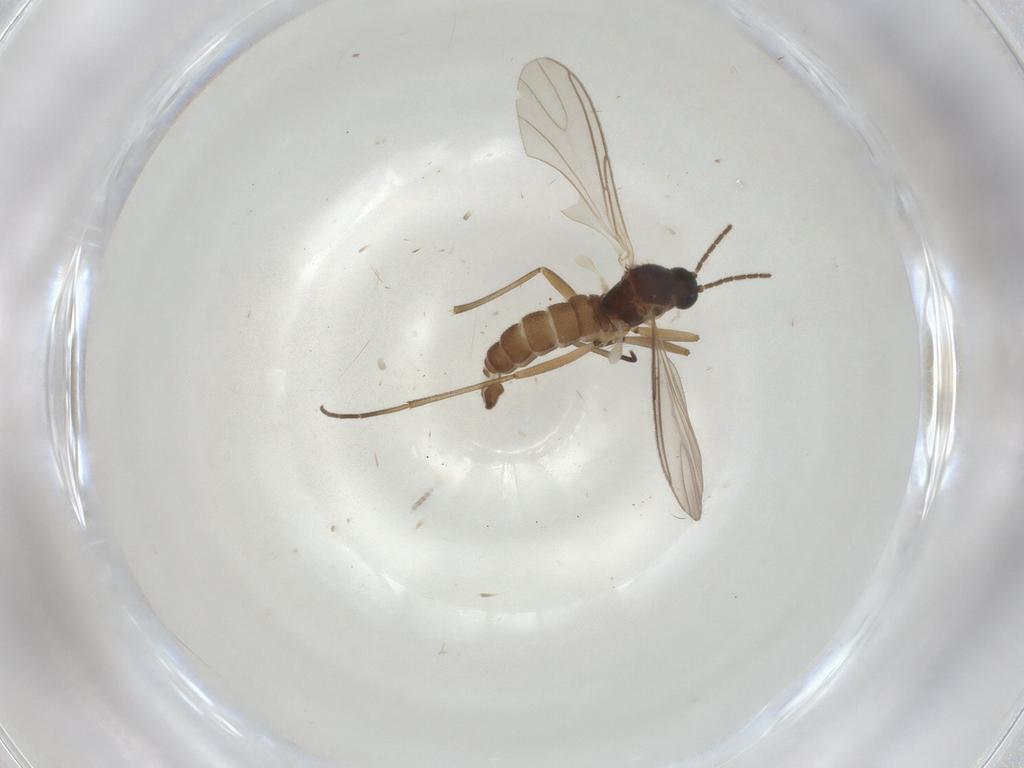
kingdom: Animalia
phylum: Arthropoda
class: Insecta
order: Diptera
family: Sciaridae
